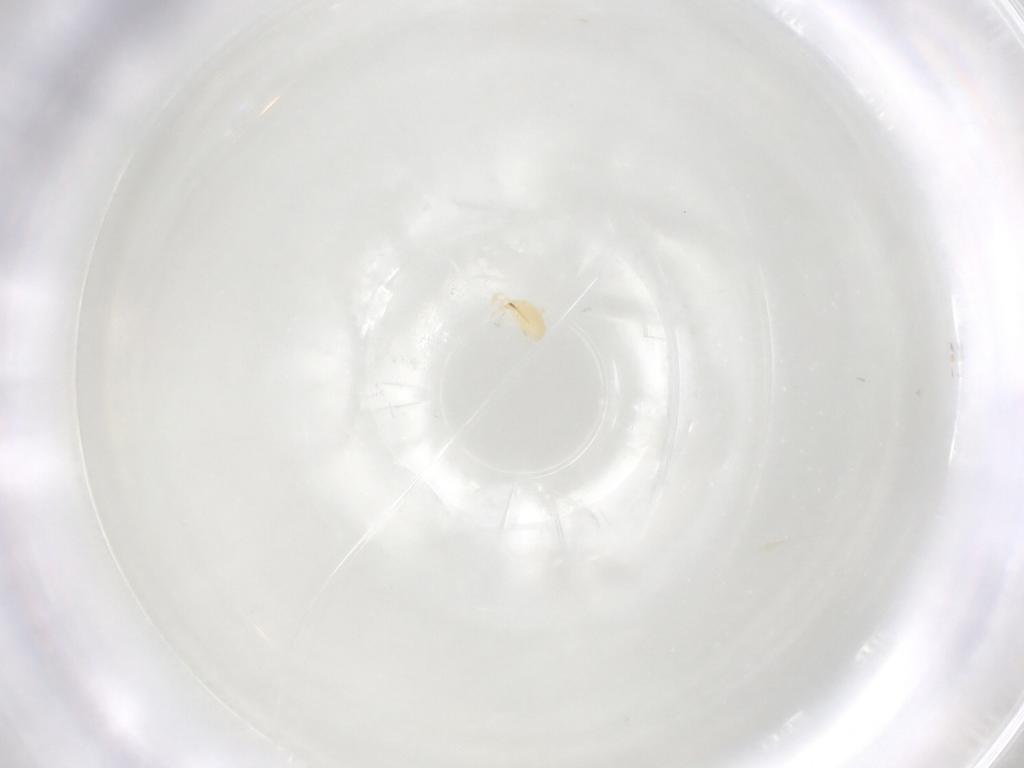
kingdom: Animalia
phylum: Arthropoda
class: Arachnida
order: Mesostigmata
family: Phytoseiidae
